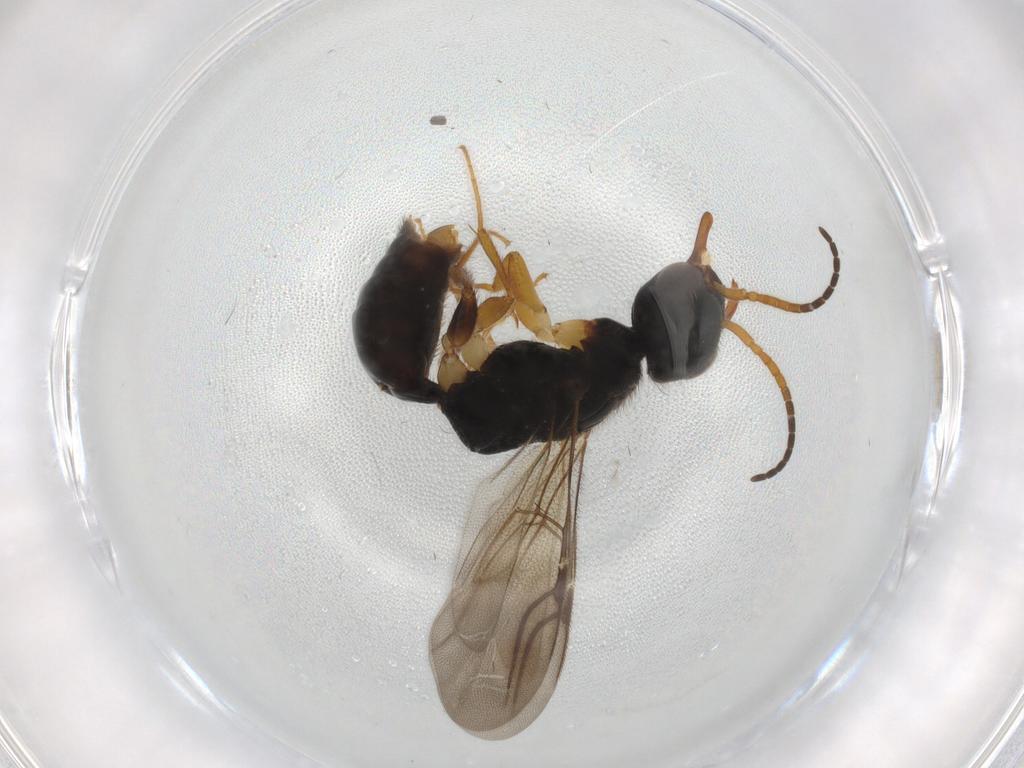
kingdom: Animalia
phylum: Arthropoda
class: Insecta
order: Hymenoptera
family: Bethylidae
